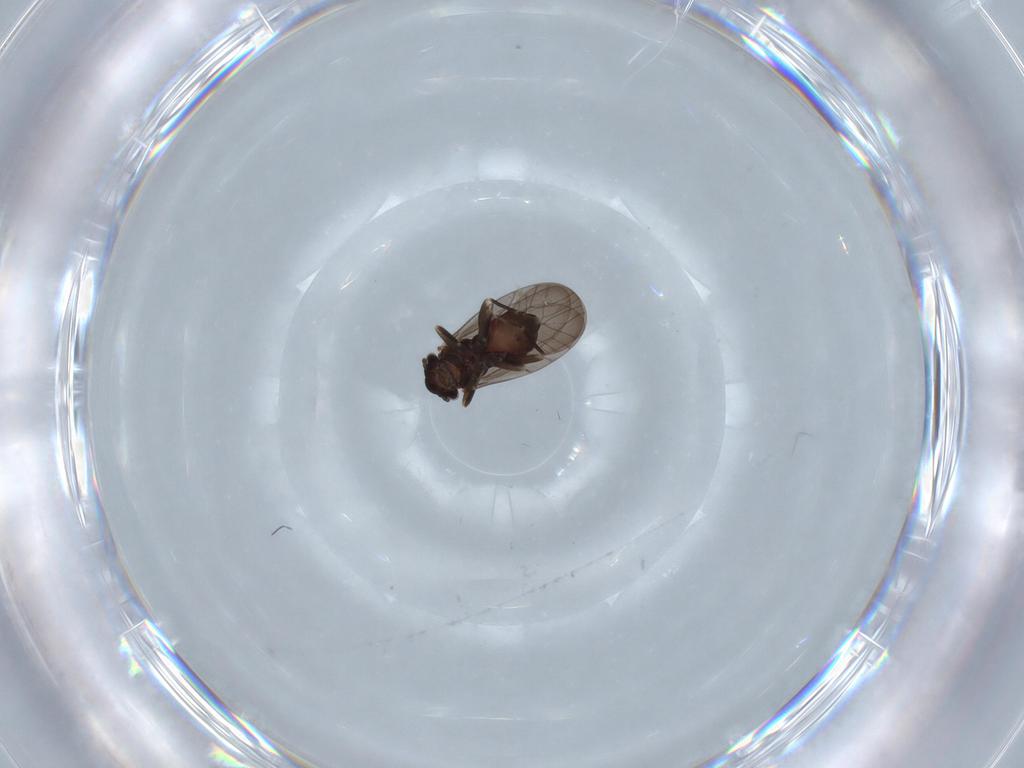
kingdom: Animalia
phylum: Arthropoda
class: Insecta
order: Psocodea
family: Lepidopsocidae
